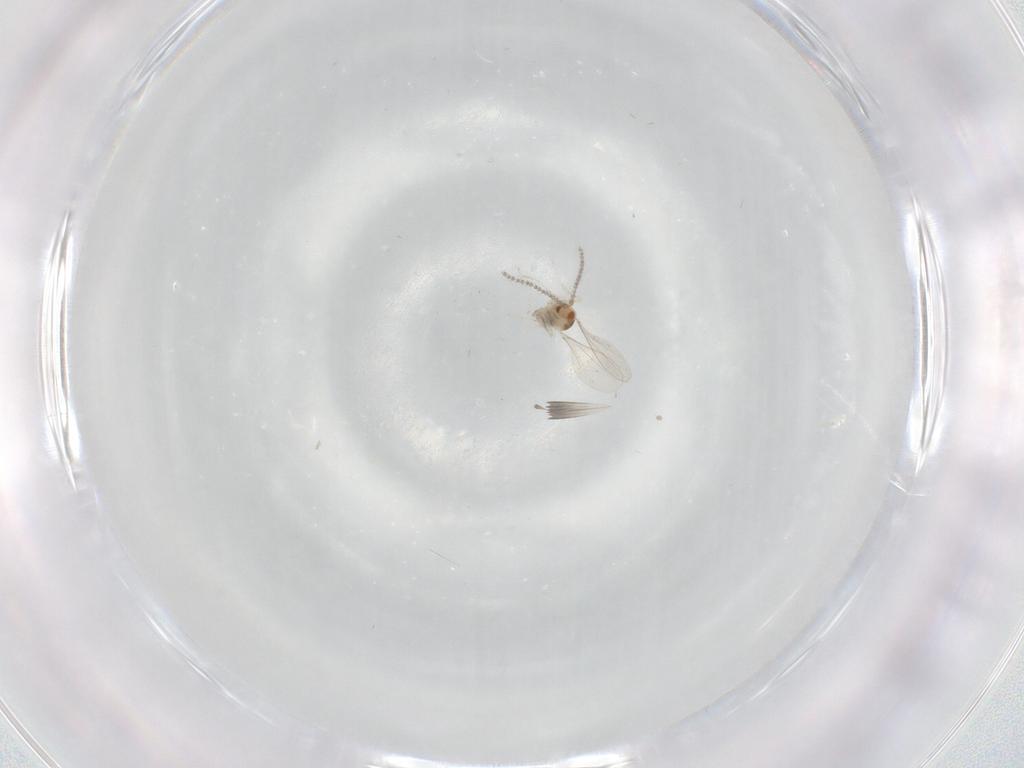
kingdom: Animalia
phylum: Arthropoda
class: Insecta
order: Diptera
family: Cecidomyiidae
